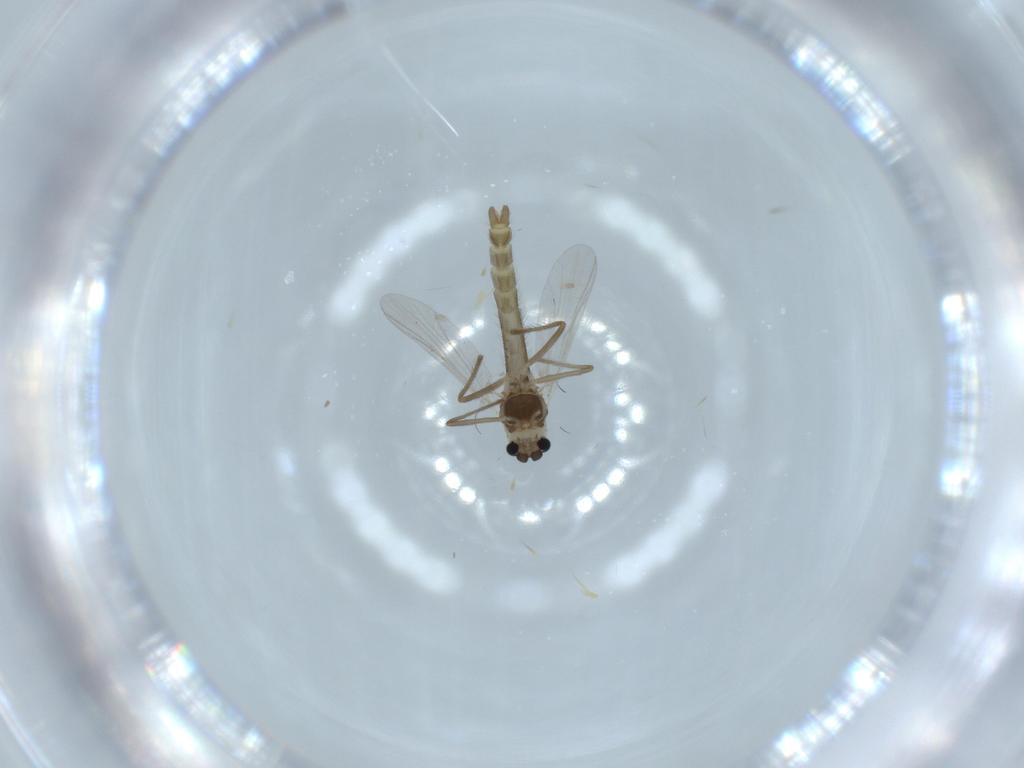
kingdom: Animalia
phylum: Arthropoda
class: Insecta
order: Diptera
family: Chironomidae
